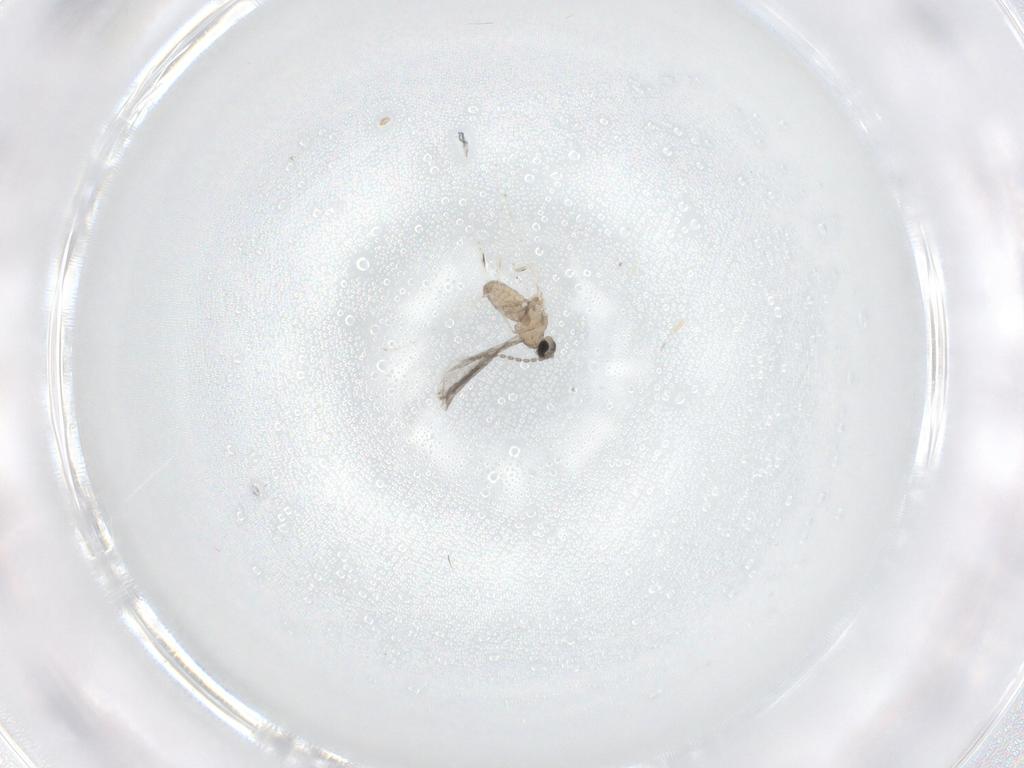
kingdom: Animalia
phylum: Arthropoda
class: Insecta
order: Diptera
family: Sciaridae
